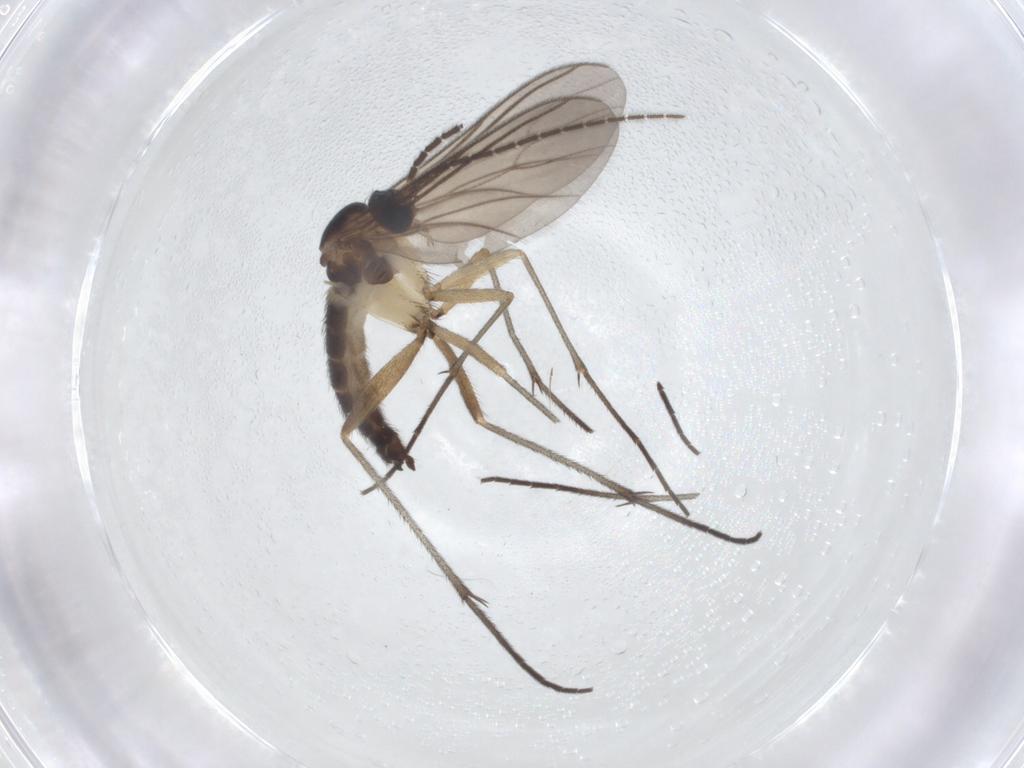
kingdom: Animalia
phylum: Arthropoda
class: Insecta
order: Diptera
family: Sciaridae
